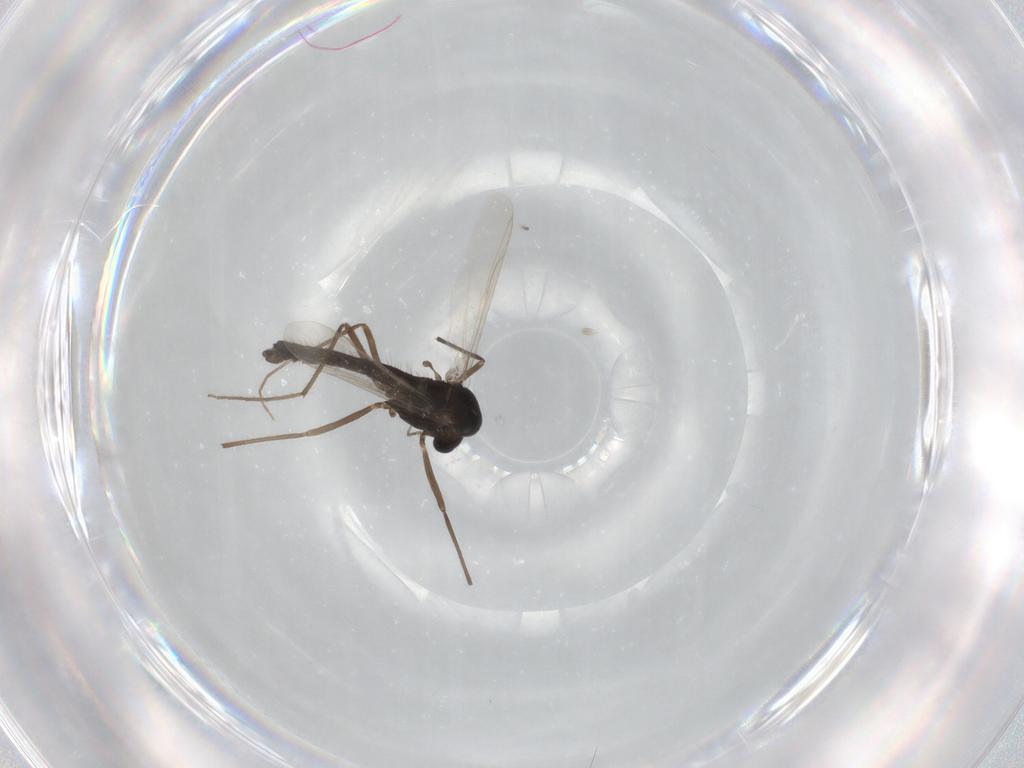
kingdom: Animalia
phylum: Arthropoda
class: Insecta
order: Diptera
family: Chironomidae
